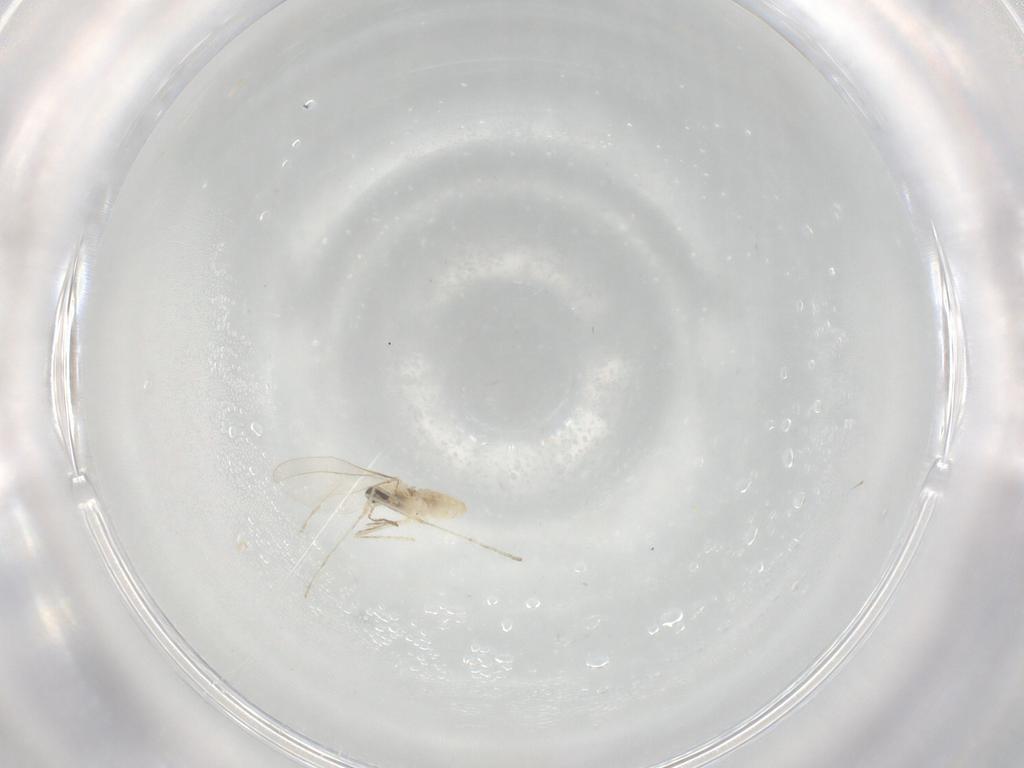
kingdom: Animalia
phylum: Arthropoda
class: Insecta
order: Diptera
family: Cecidomyiidae
